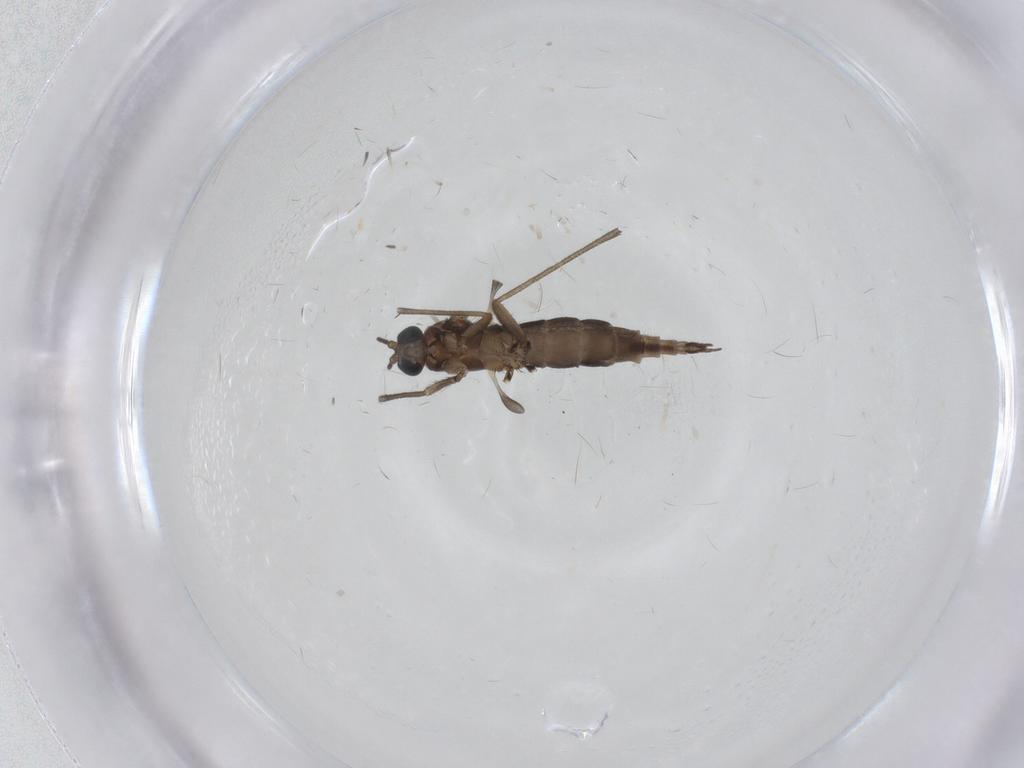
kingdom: Animalia
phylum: Arthropoda
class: Insecta
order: Diptera
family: Sciaridae
